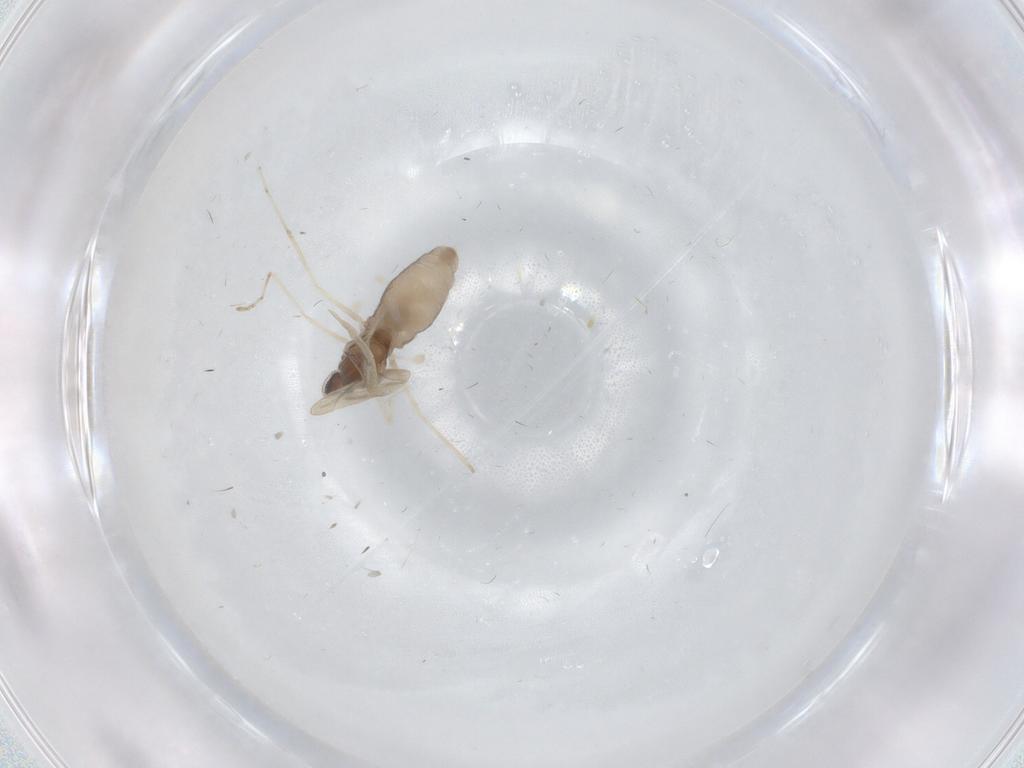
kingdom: Animalia
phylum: Arthropoda
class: Insecta
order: Diptera
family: Cecidomyiidae
